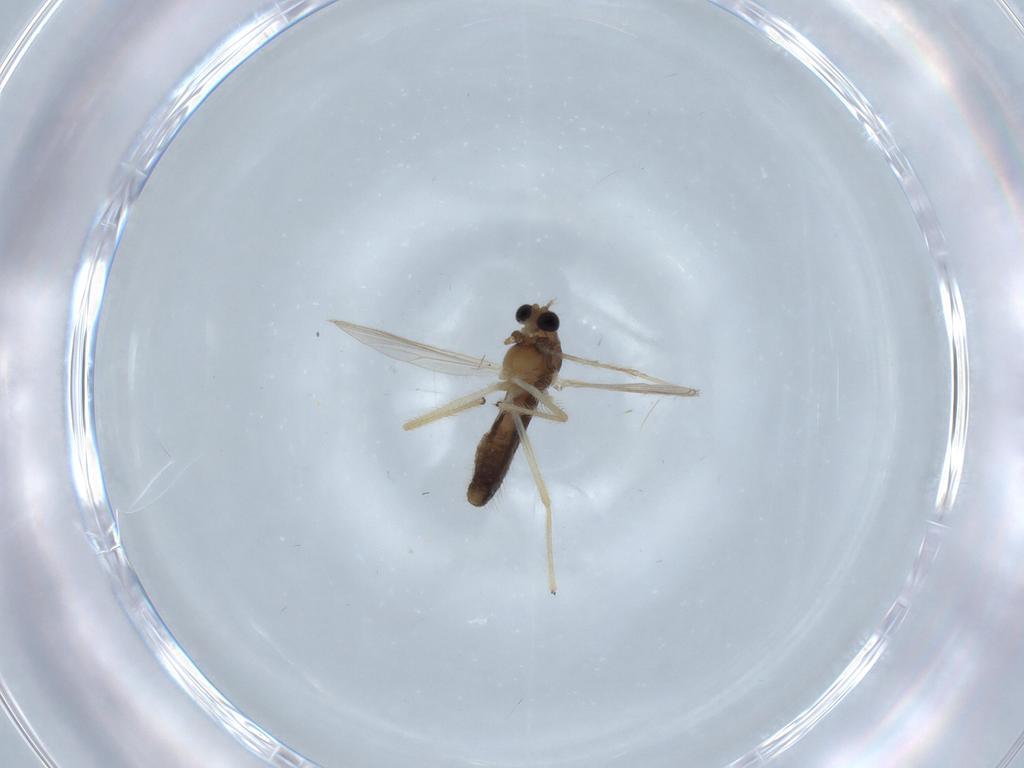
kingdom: Animalia
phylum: Arthropoda
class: Insecta
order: Diptera
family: Chironomidae
